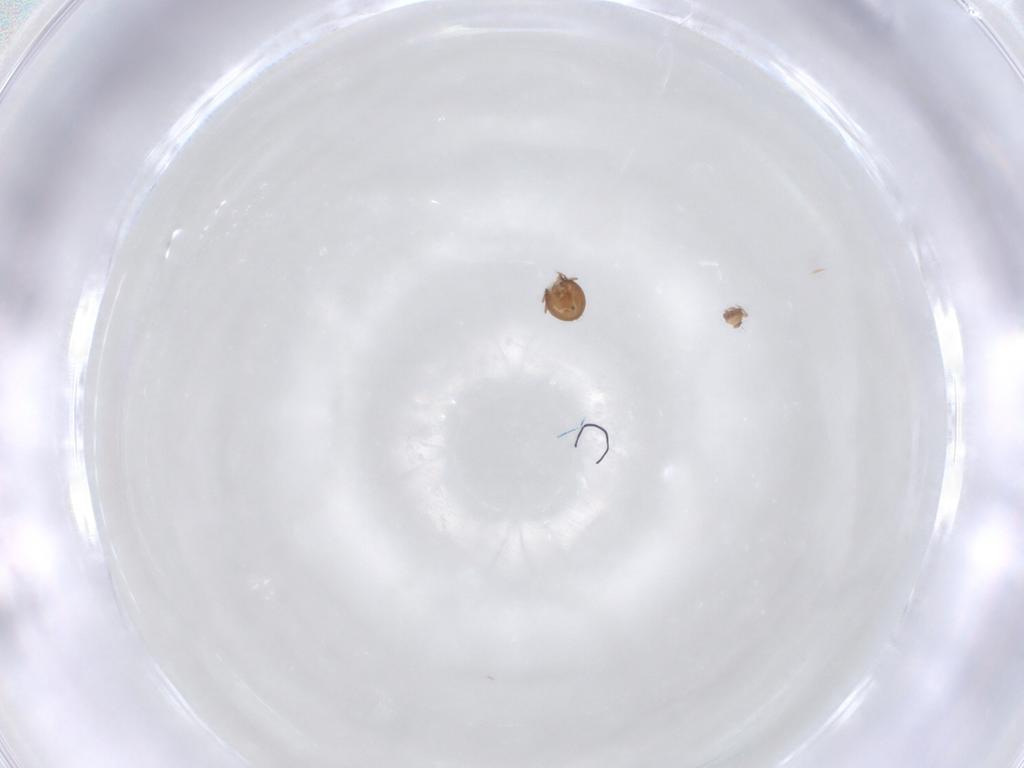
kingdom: Animalia
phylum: Arthropoda
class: Arachnida
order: Sarcoptiformes
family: Oribatulidae
